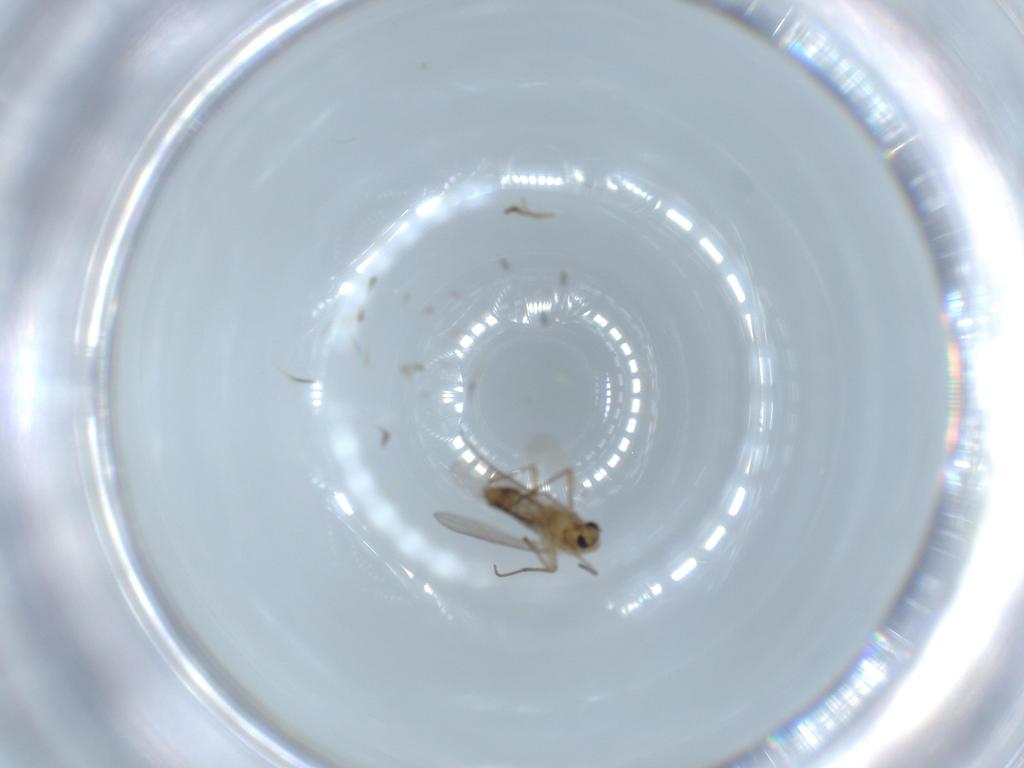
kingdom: Animalia
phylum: Arthropoda
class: Insecta
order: Diptera
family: Chironomidae
